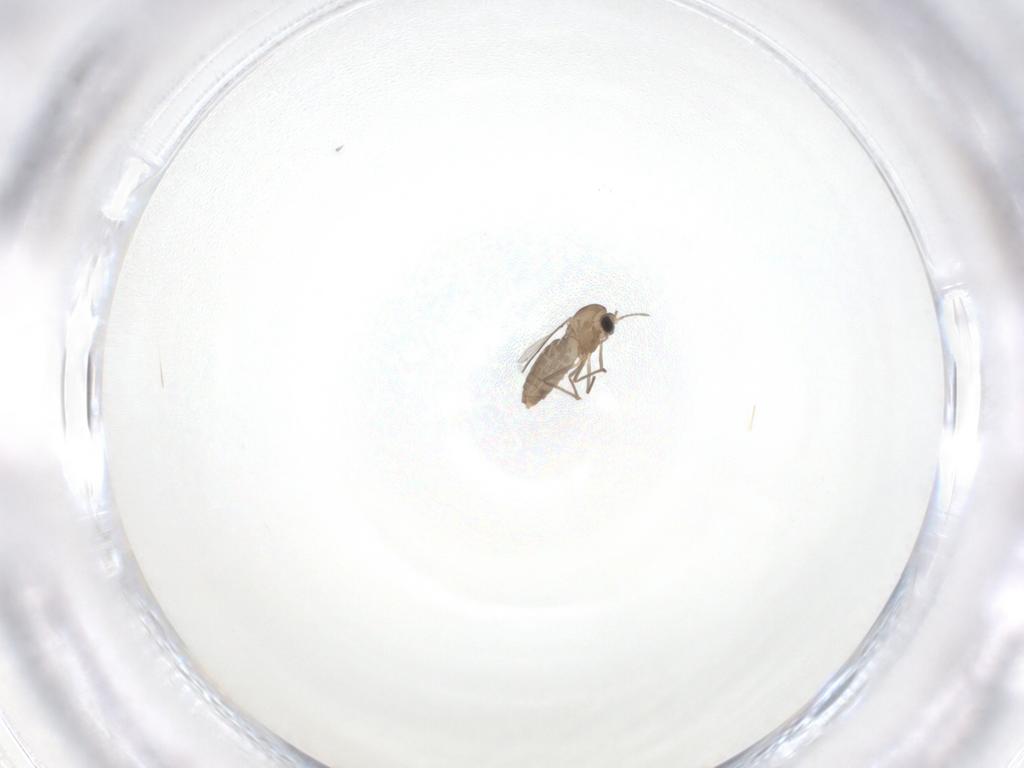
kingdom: Animalia
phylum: Arthropoda
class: Insecta
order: Diptera
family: Chironomidae
